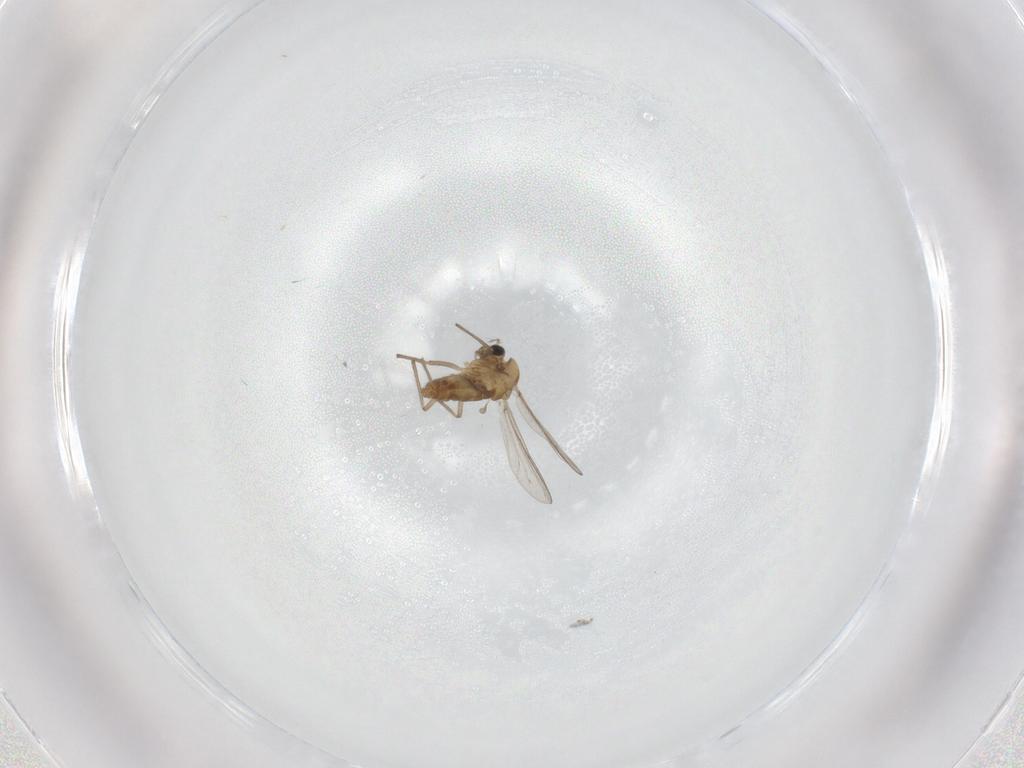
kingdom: Animalia
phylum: Arthropoda
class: Insecta
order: Diptera
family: Chironomidae
